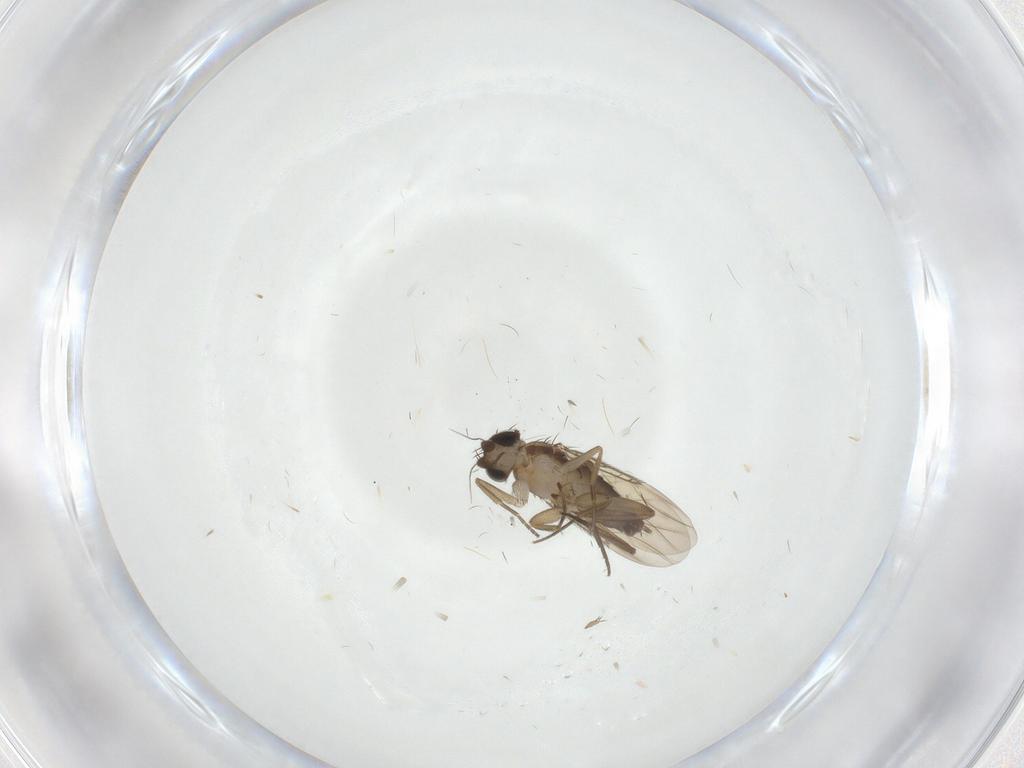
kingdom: Animalia
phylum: Arthropoda
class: Insecta
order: Diptera
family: Phoridae
